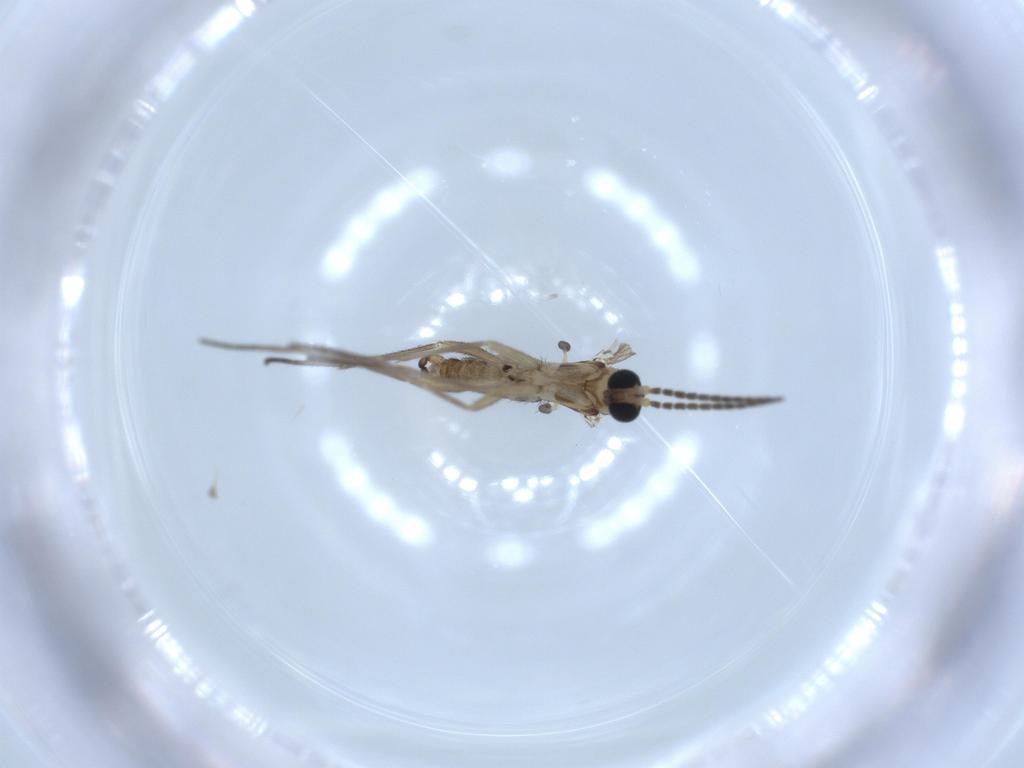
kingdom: Animalia
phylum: Arthropoda
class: Insecta
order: Diptera
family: Sciaridae
